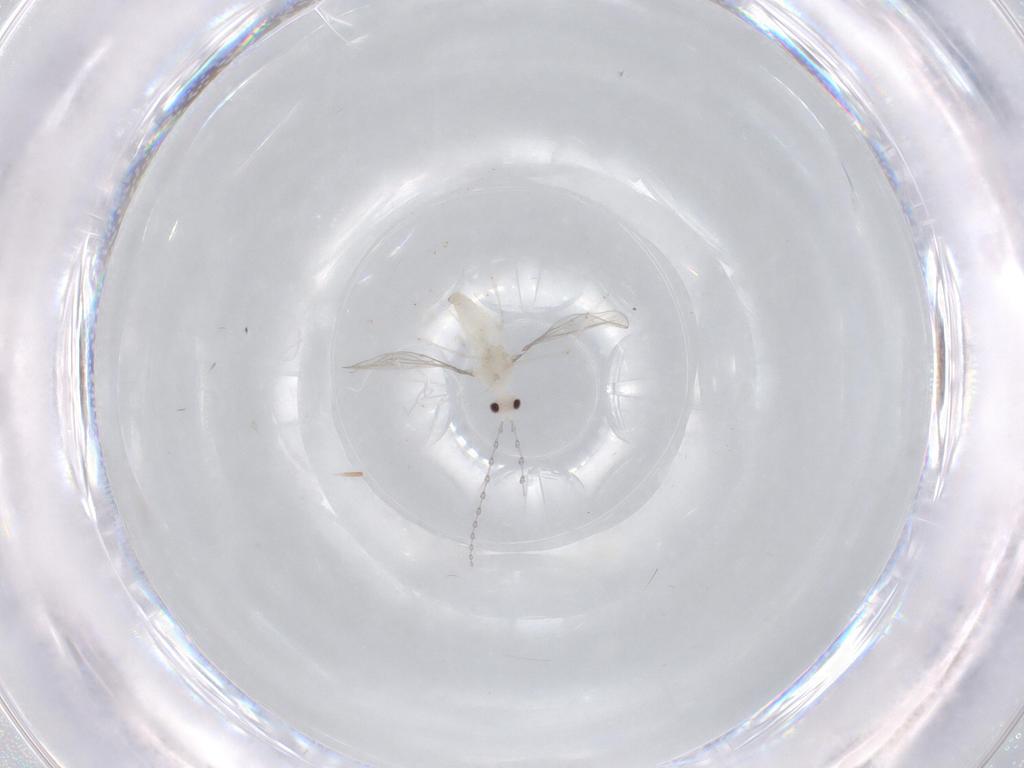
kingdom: Animalia
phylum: Arthropoda
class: Insecta
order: Diptera
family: Cecidomyiidae
